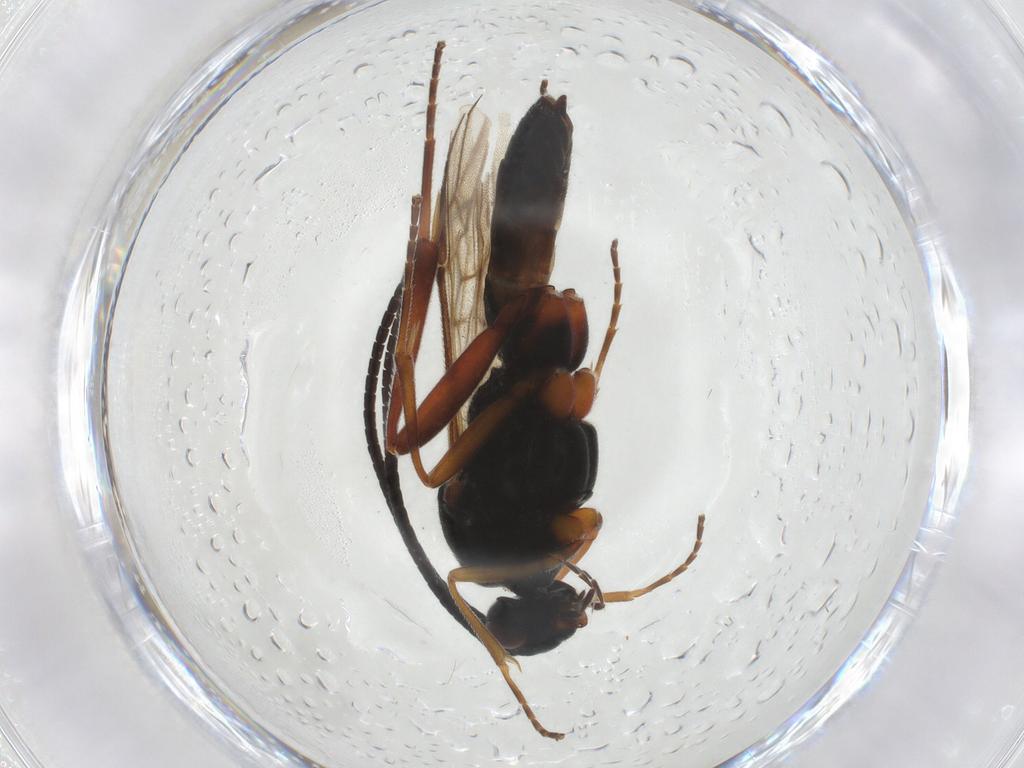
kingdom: Animalia
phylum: Arthropoda
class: Insecta
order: Hymenoptera
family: Braconidae
